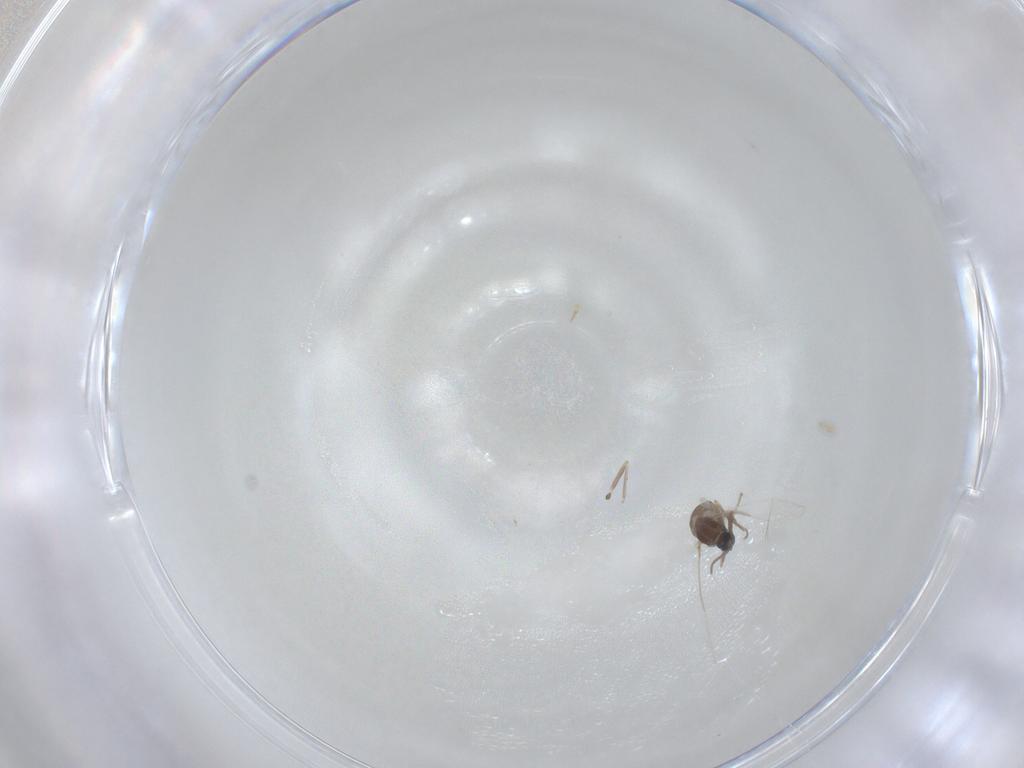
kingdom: Animalia
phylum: Arthropoda
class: Insecta
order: Diptera
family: Cecidomyiidae
